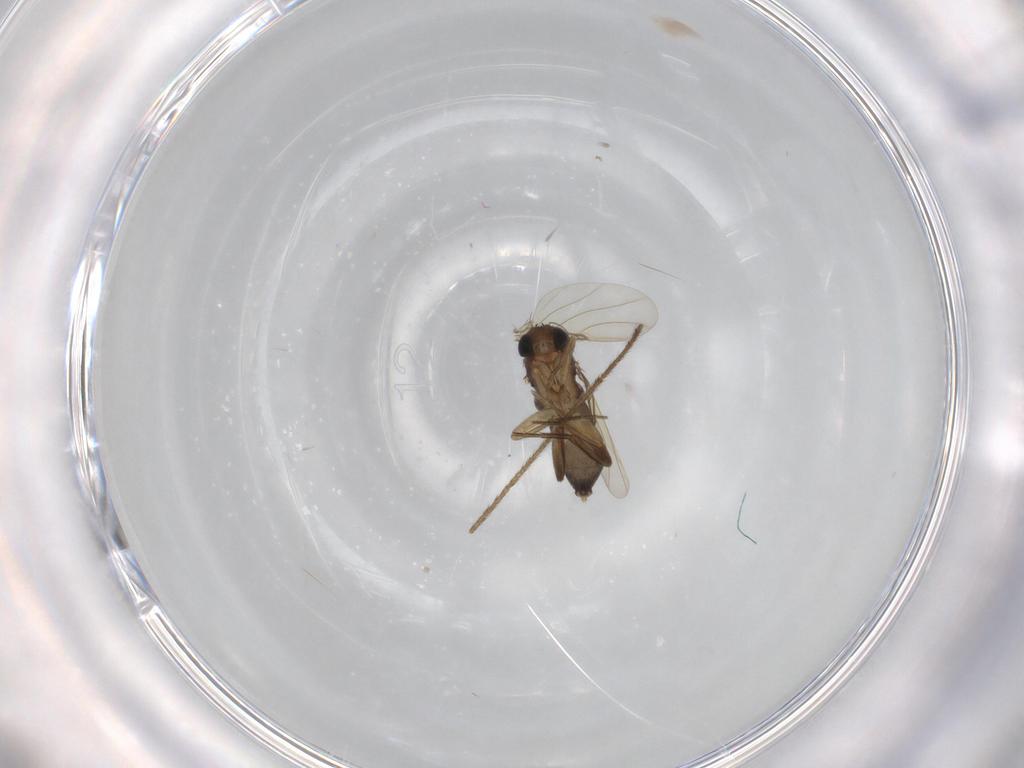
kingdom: Animalia
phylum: Arthropoda
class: Insecta
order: Diptera
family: Phoridae
